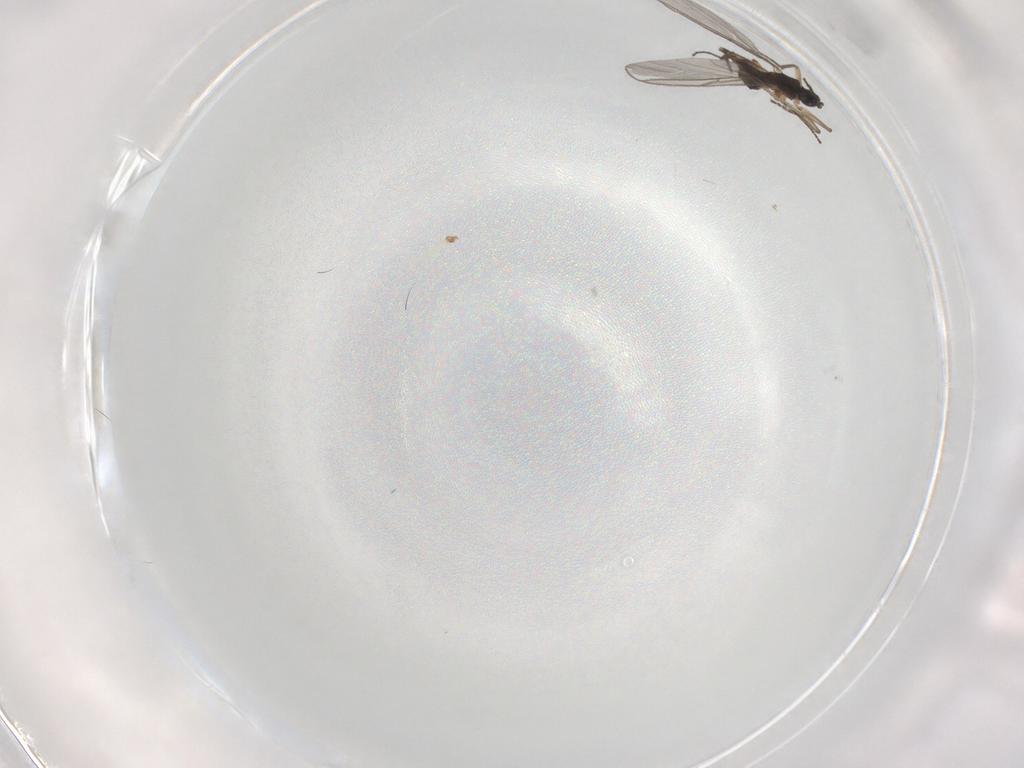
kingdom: Animalia
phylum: Arthropoda
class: Insecta
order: Diptera
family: Sciaridae
